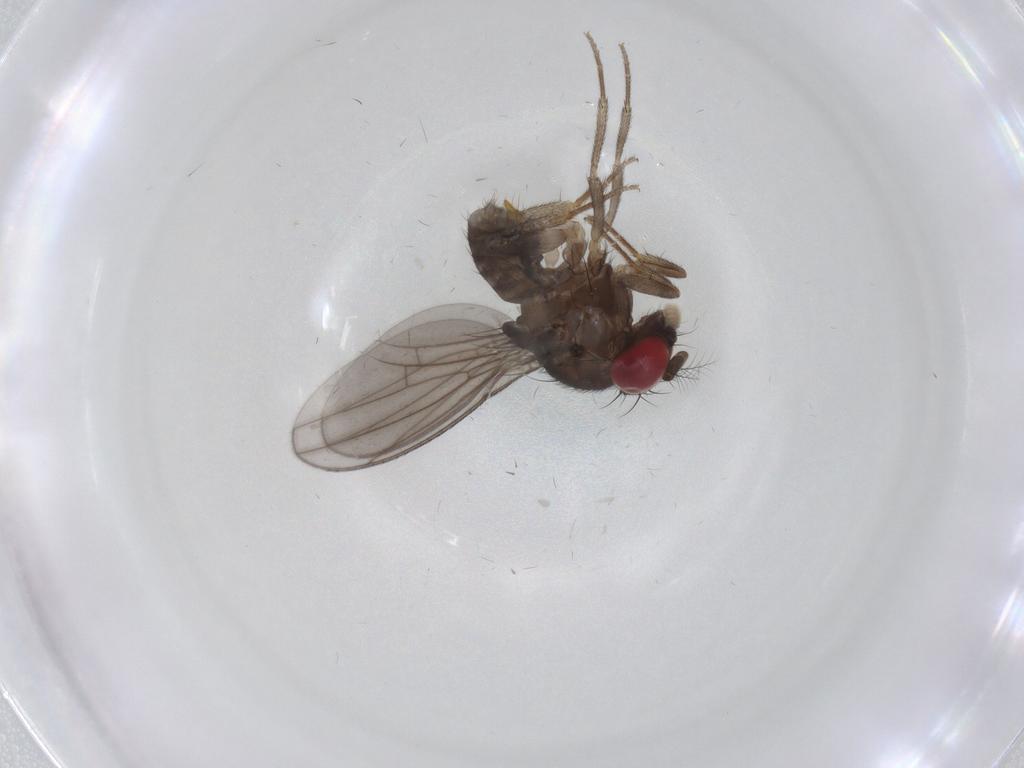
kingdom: Animalia
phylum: Arthropoda
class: Insecta
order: Diptera
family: Drosophilidae
